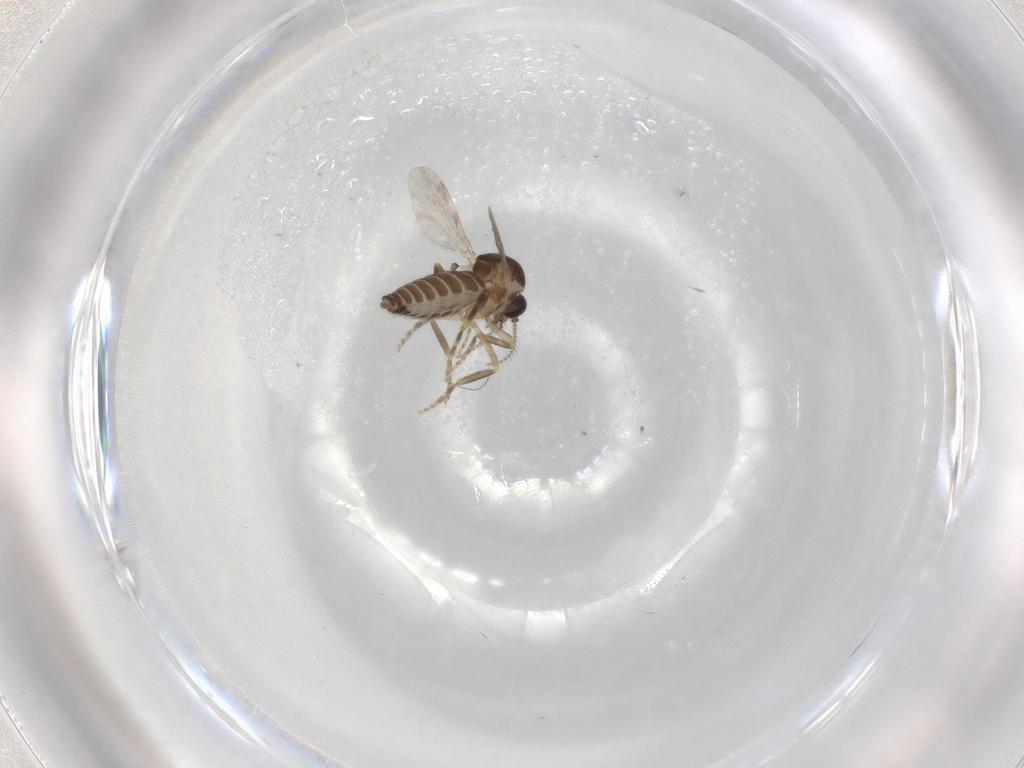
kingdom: Animalia
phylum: Arthropoda
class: Insecta
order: Diptera
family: Ceratopogonidae
